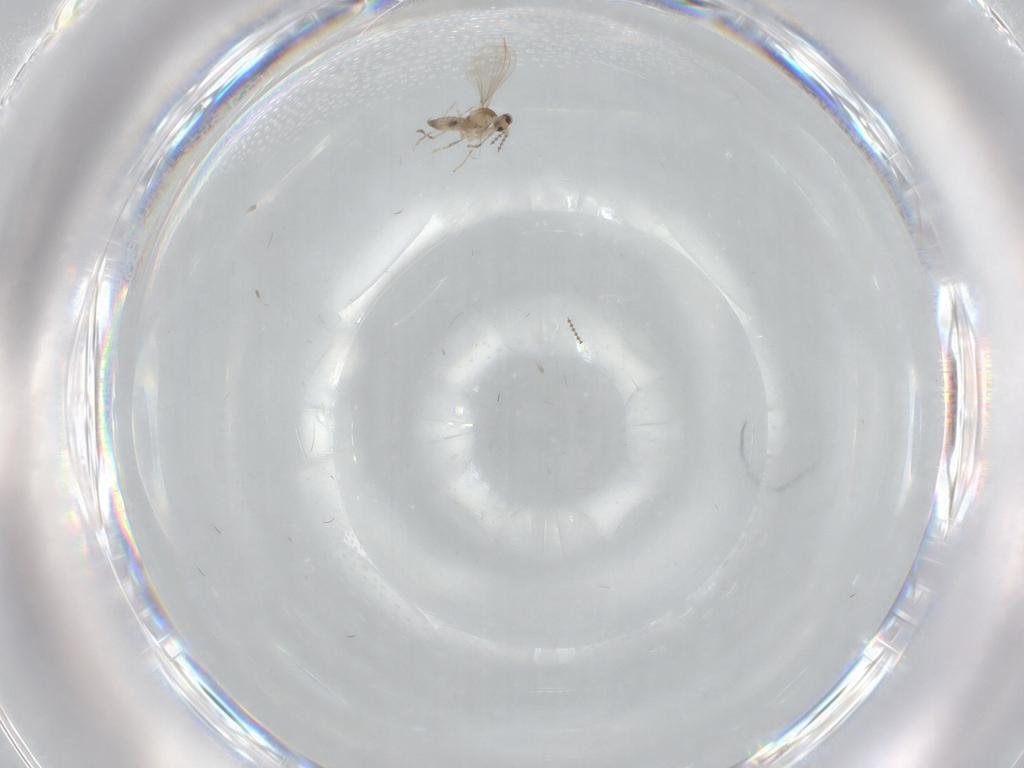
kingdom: Animalia
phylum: Arthropoda
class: Insecta
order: Diptera
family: Cecidomyiidae
